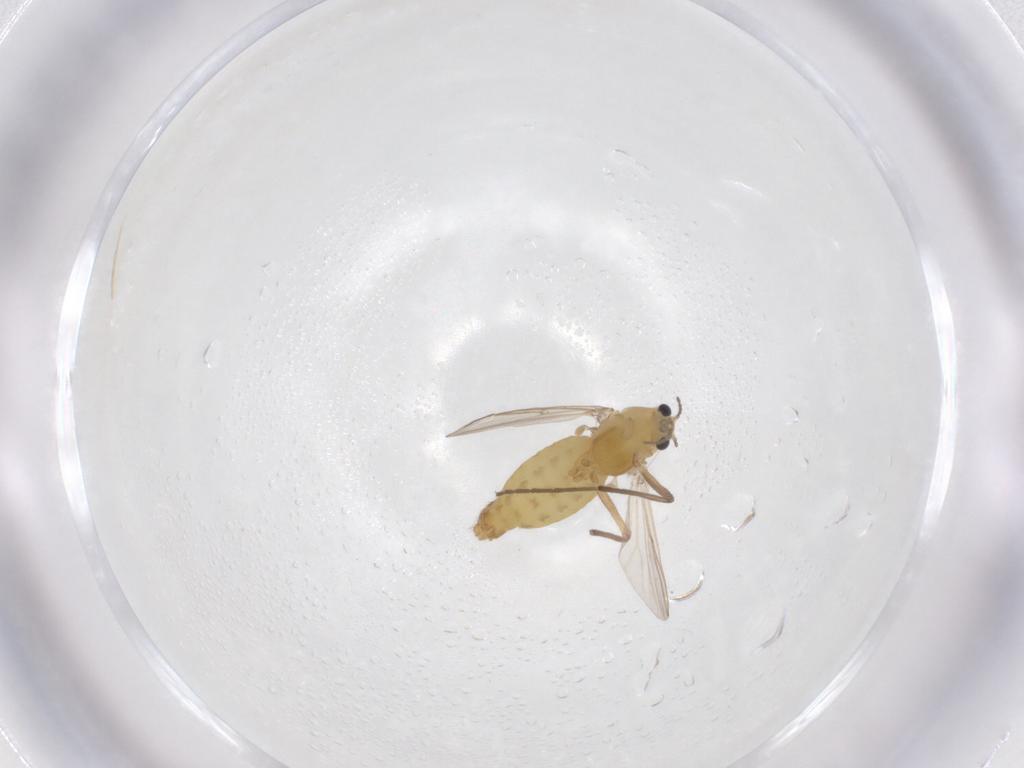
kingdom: Animalia
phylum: Arthropoda
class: Insecta
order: Diptera
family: Chironomidae
